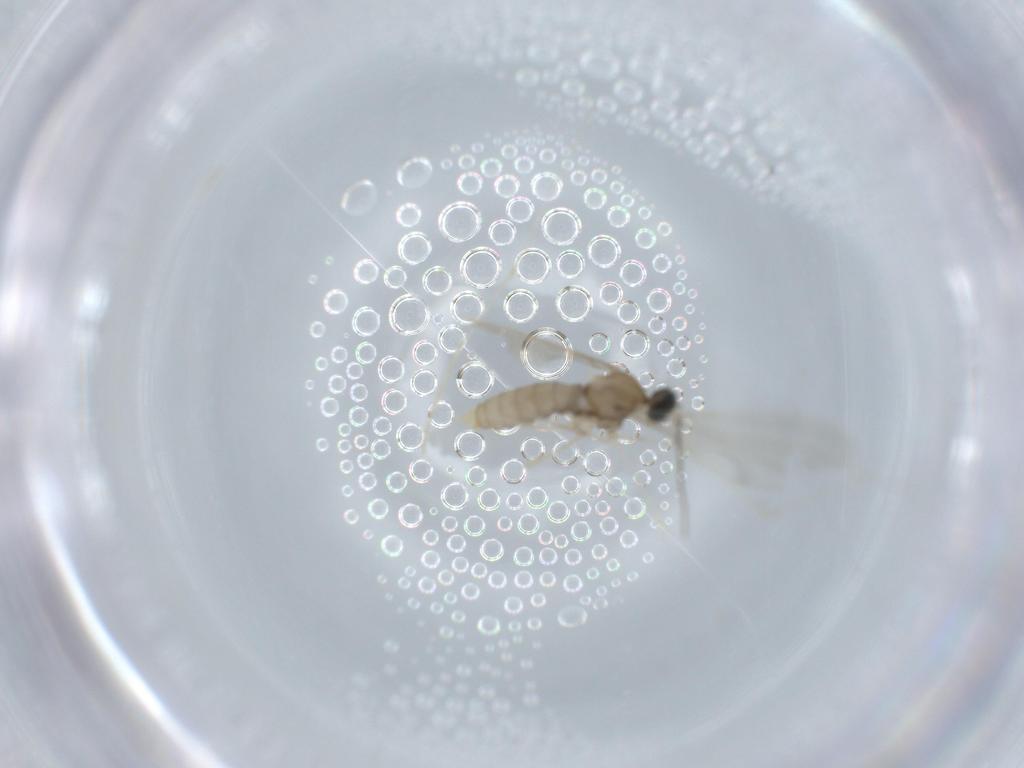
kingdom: Animalia
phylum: Arthropoda
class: Insecta
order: Diptera
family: Cecidomyiidae
